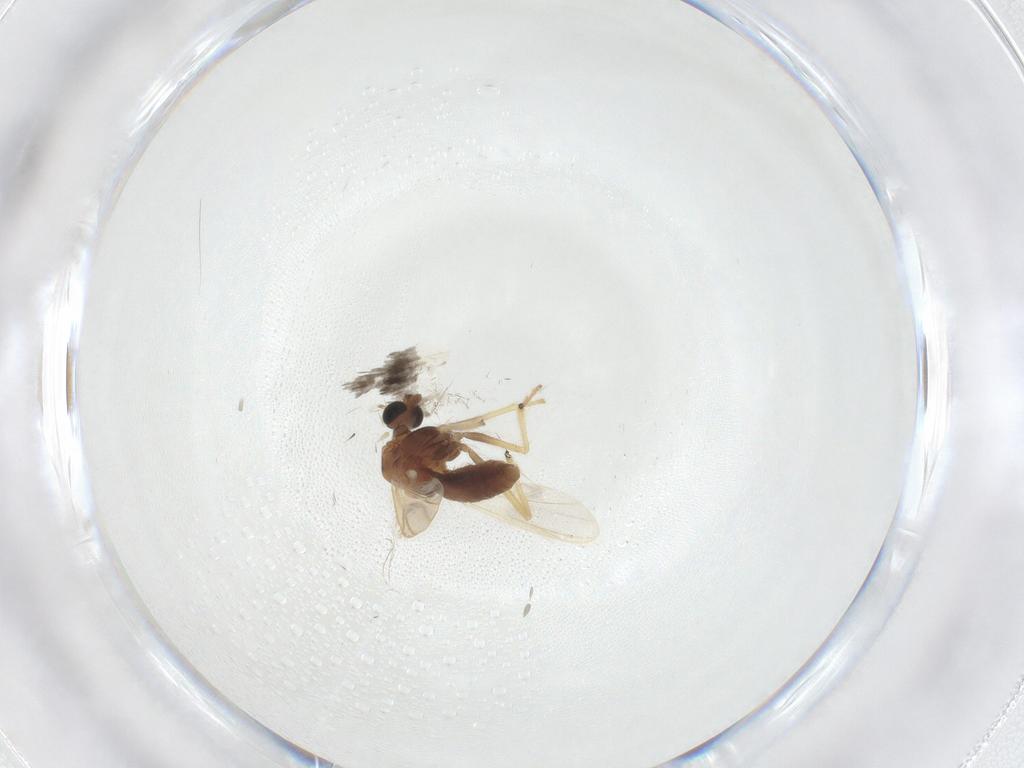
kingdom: Animalia
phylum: Arthropoda
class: Insecta
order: Diptera
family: Chironomidae
